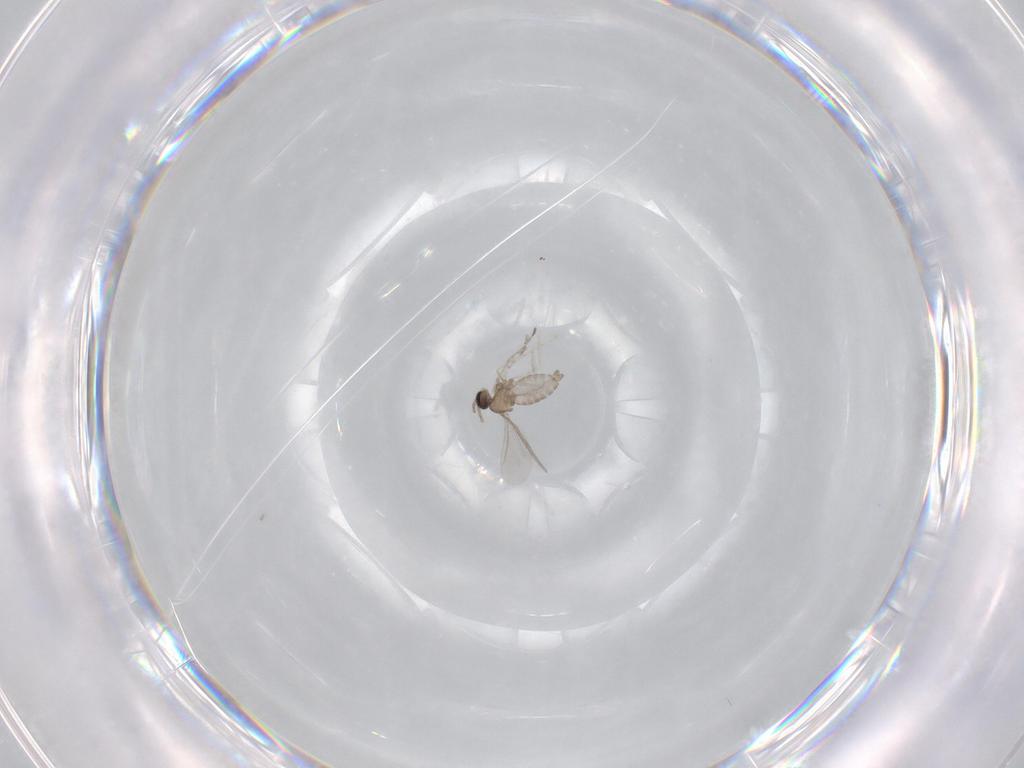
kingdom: Animalia
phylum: Arthropoda
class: Insecta
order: Diptera
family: Cecidomyiidae
